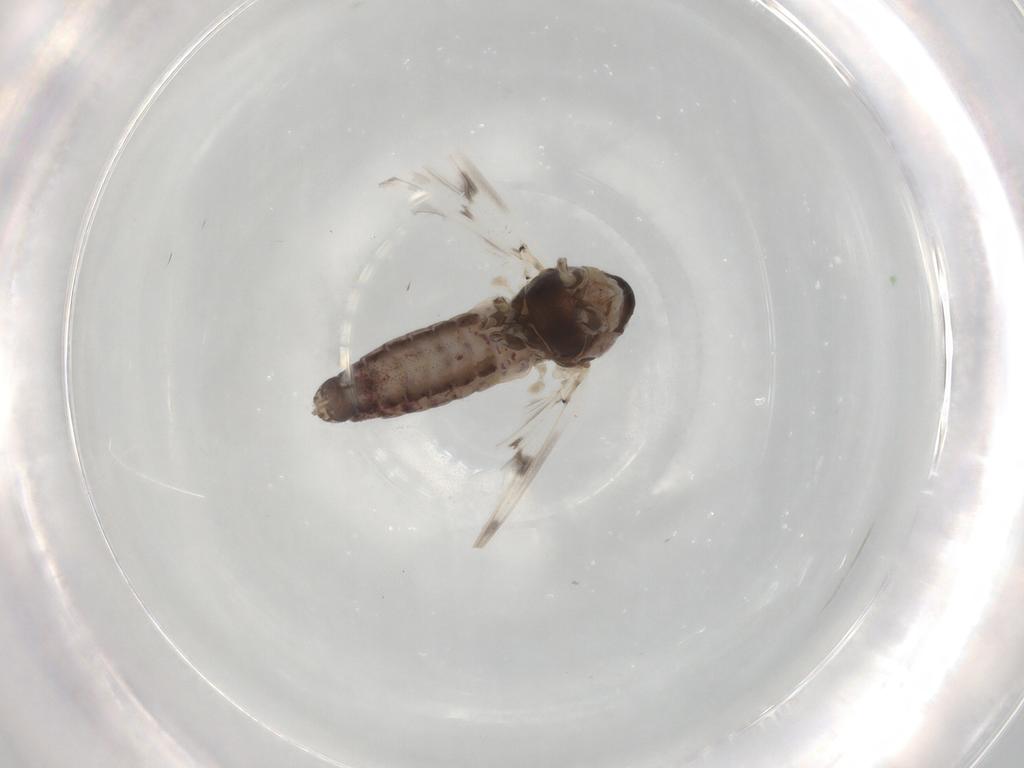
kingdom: Animalia
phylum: Arthropoda
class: Insecta
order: Diptera
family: Chironomidae
